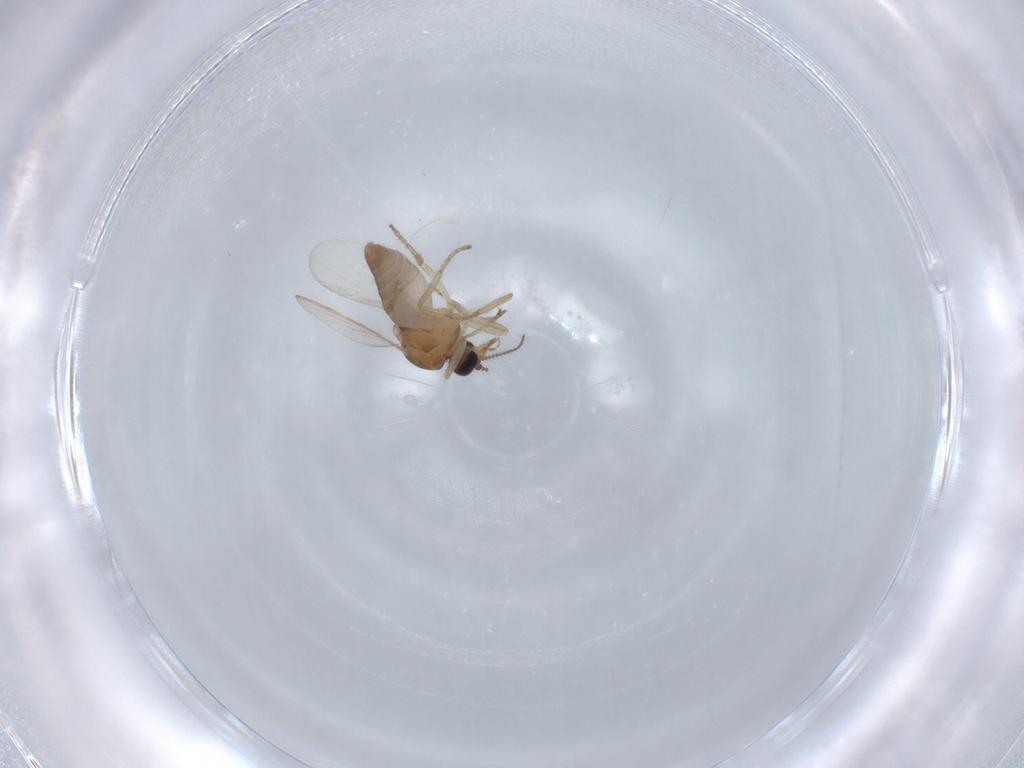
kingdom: Animalia
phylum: Arthropoda
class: Insecta
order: Diptera
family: Ceratopogonidae
